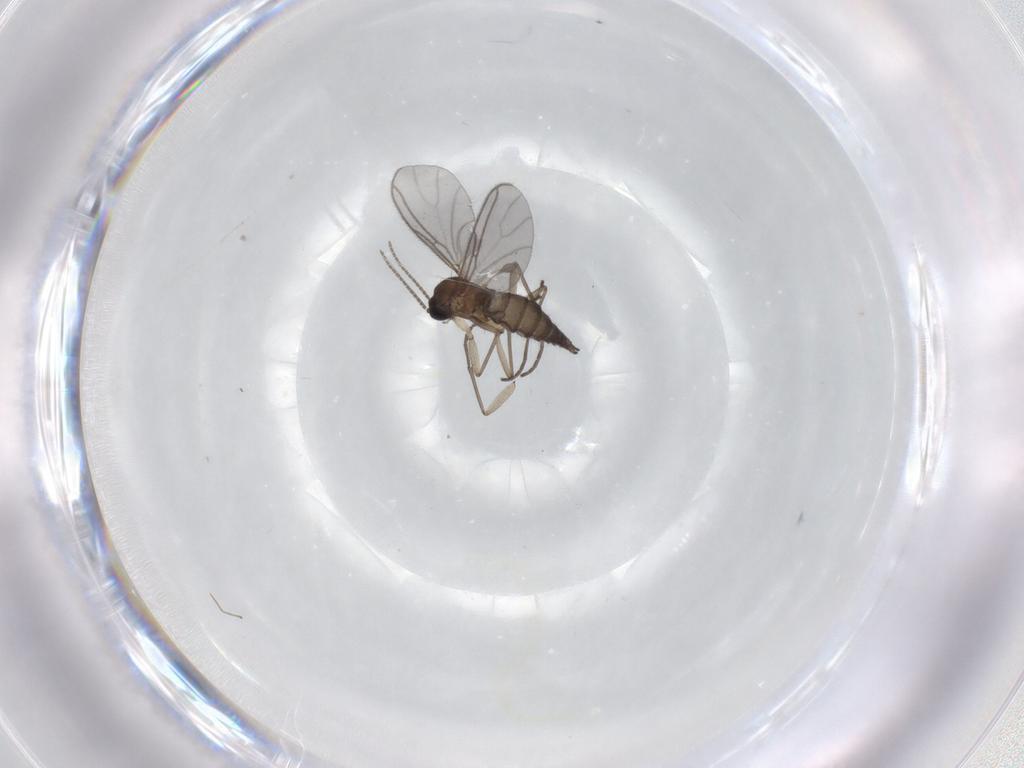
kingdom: Animalia
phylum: Arthropoda
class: Insecta
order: Diptera
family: Sciaridae
